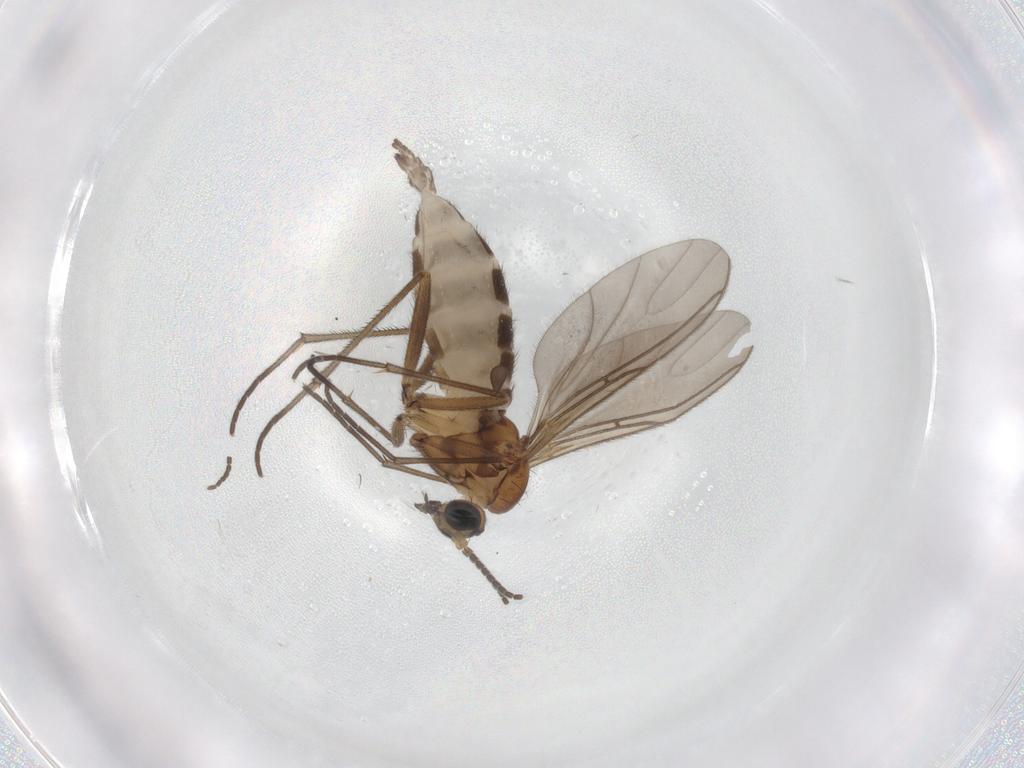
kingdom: Animalia
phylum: Arthropoda
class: Insecta
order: Diptera
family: Sciaridae
